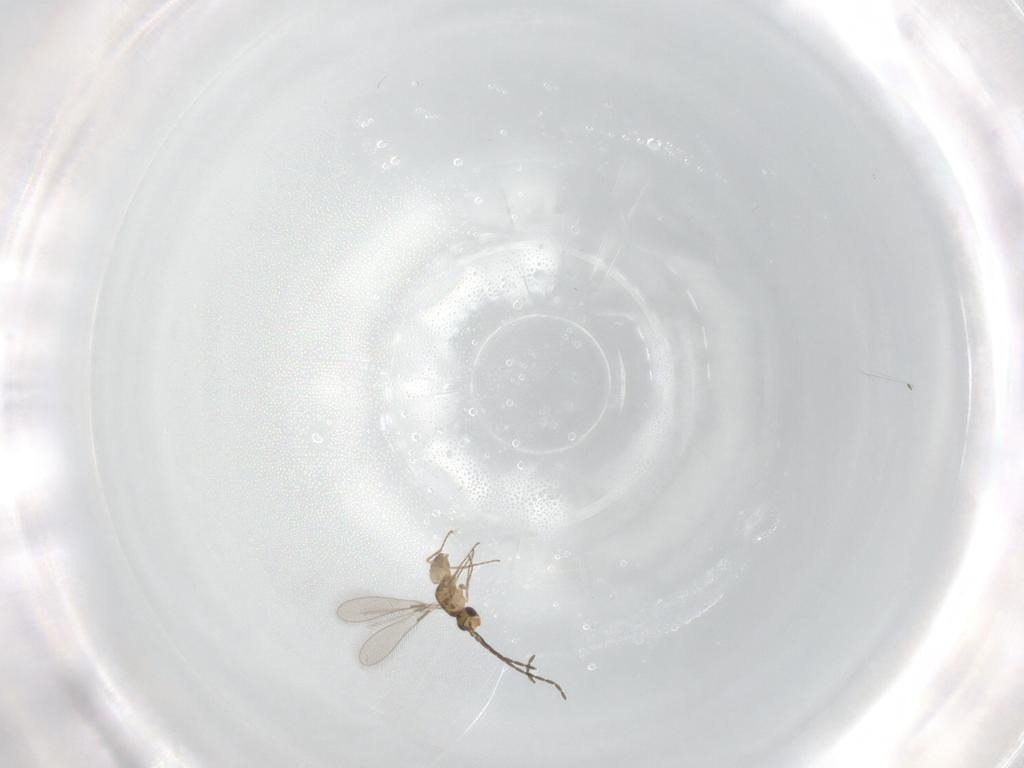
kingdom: Animalia
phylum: Arthropoda
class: Insecta
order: Hymenoptera
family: Mymaridae
